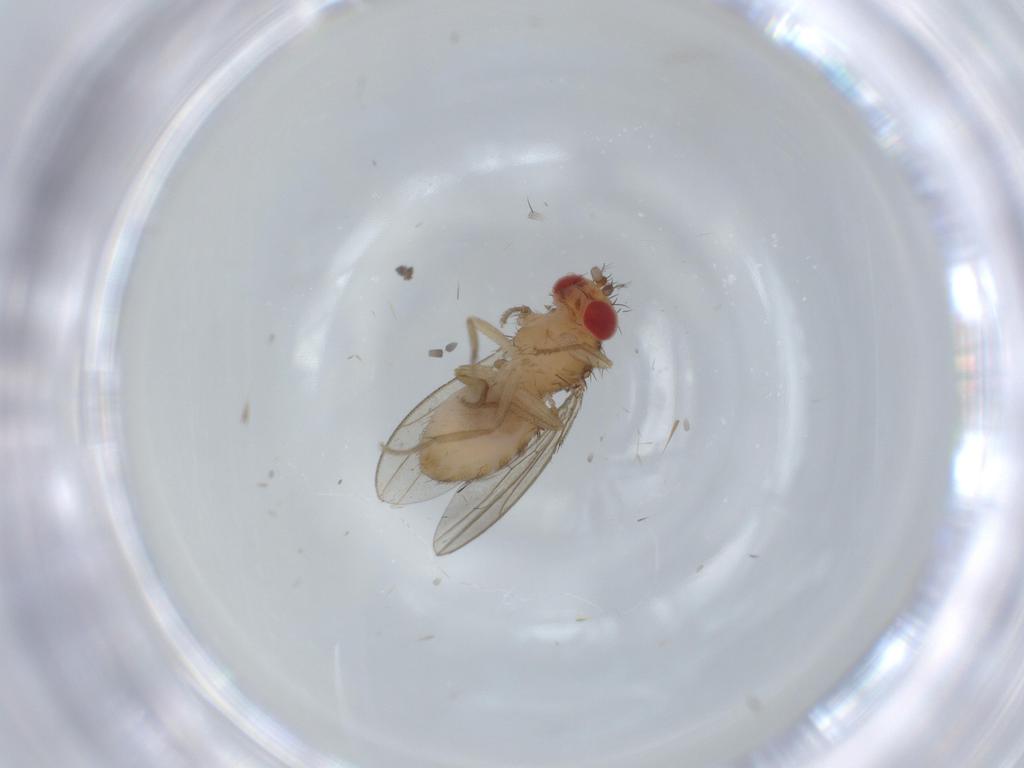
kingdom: Animalia
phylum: Arthropoda
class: Insecta
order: Diptera
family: Drosophilidae
